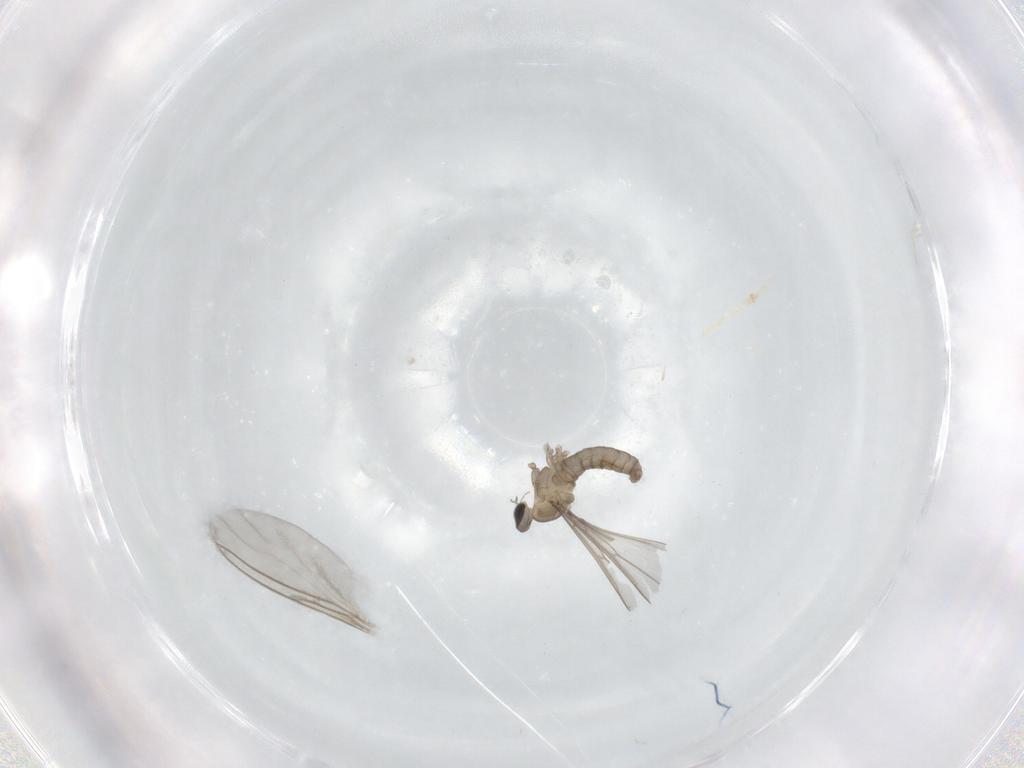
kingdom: Animalia
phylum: Arthropoda
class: Insecta
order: Diptera
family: Cecidomyiidae
